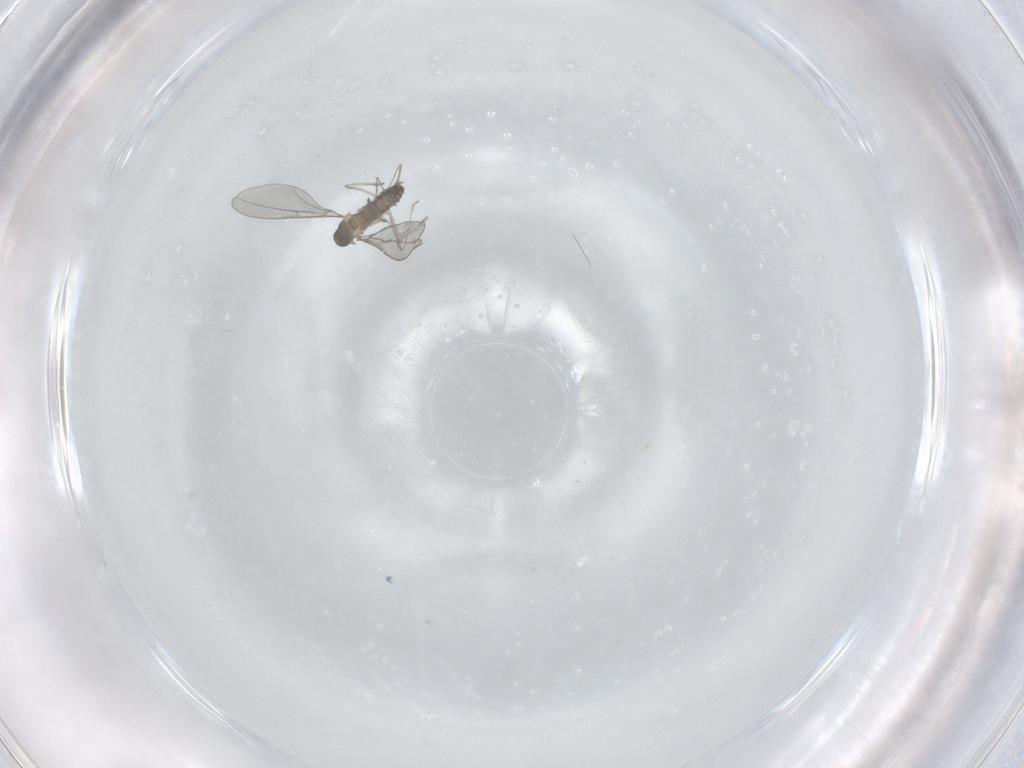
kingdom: Animalia
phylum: Arthropoda
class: Insecta
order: Diptera
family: Cecidomyiidae
